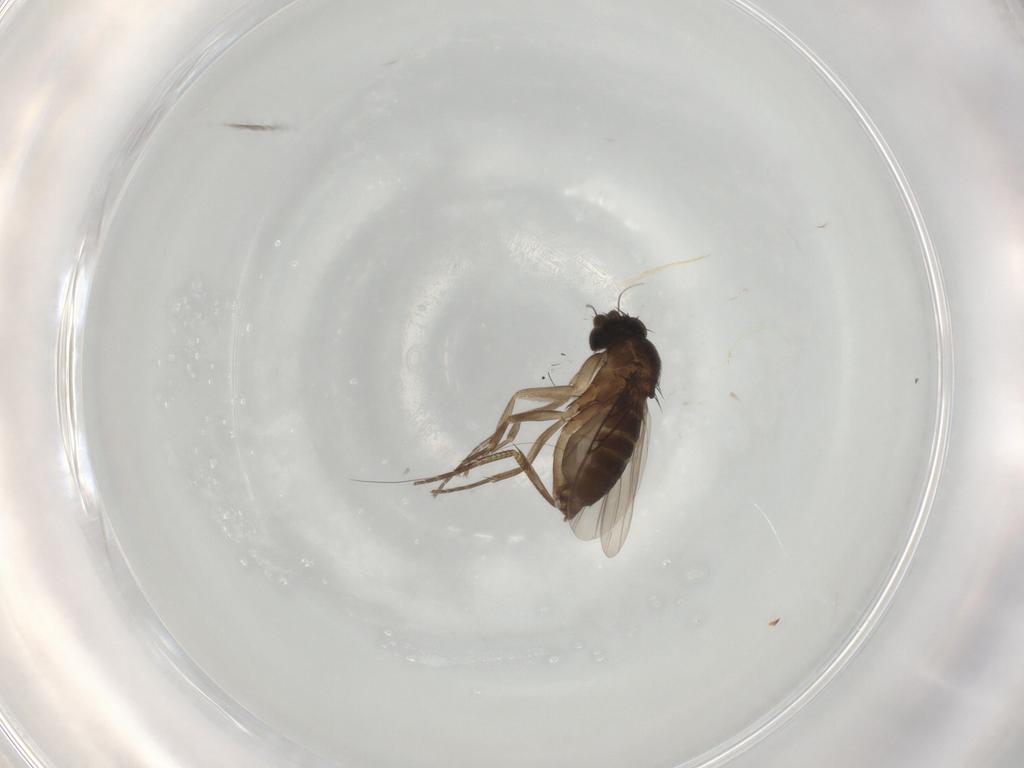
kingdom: Animalia
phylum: Arthropoda
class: Insecta
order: Diptera
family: Phoridae
